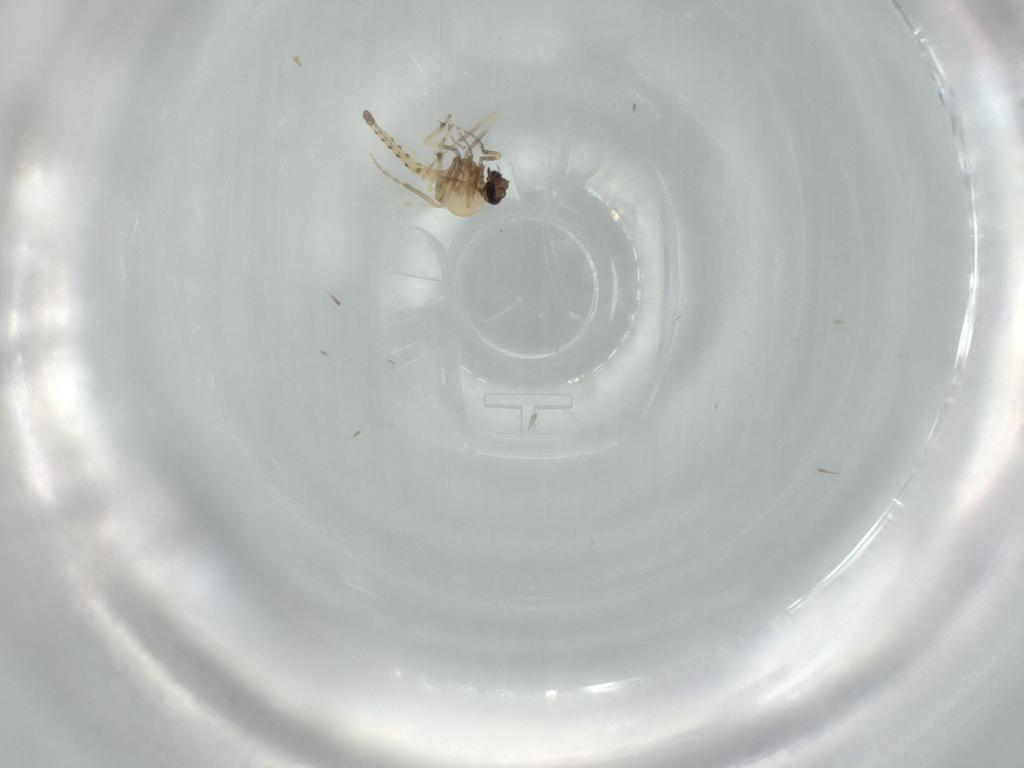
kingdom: Animalia
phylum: Arthropoda
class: Insecta
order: Diptera
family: Ceratopogonidae
